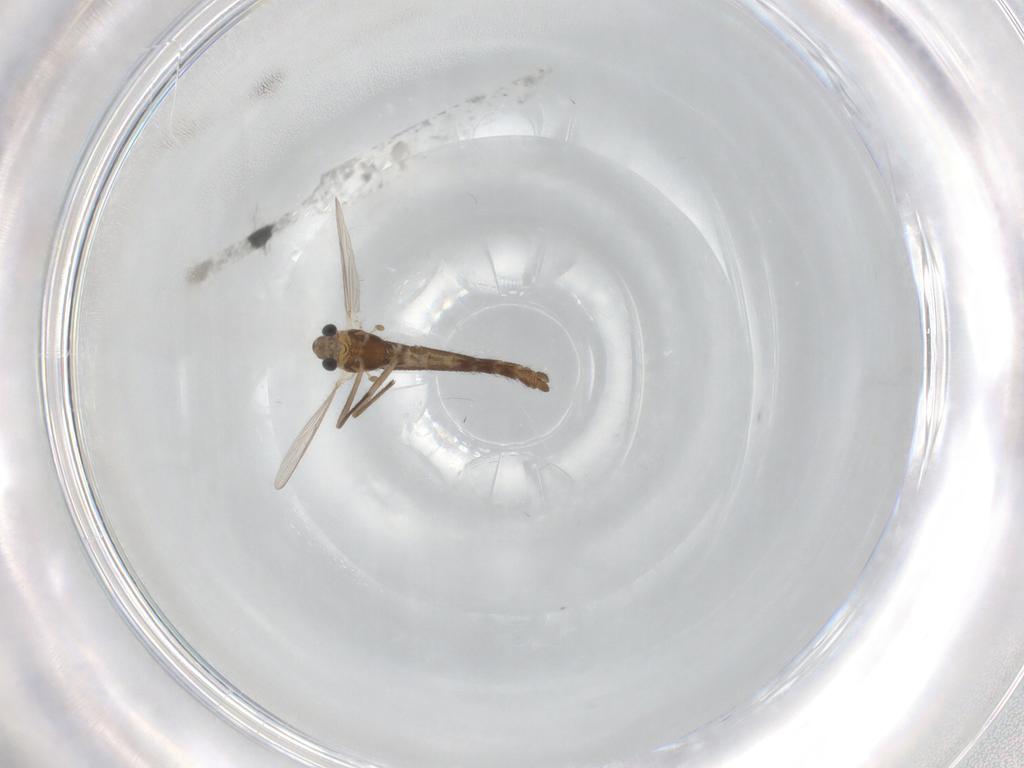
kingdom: Animalia
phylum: Arthropoda
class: Insecta
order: Diptera
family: Chironomidae
